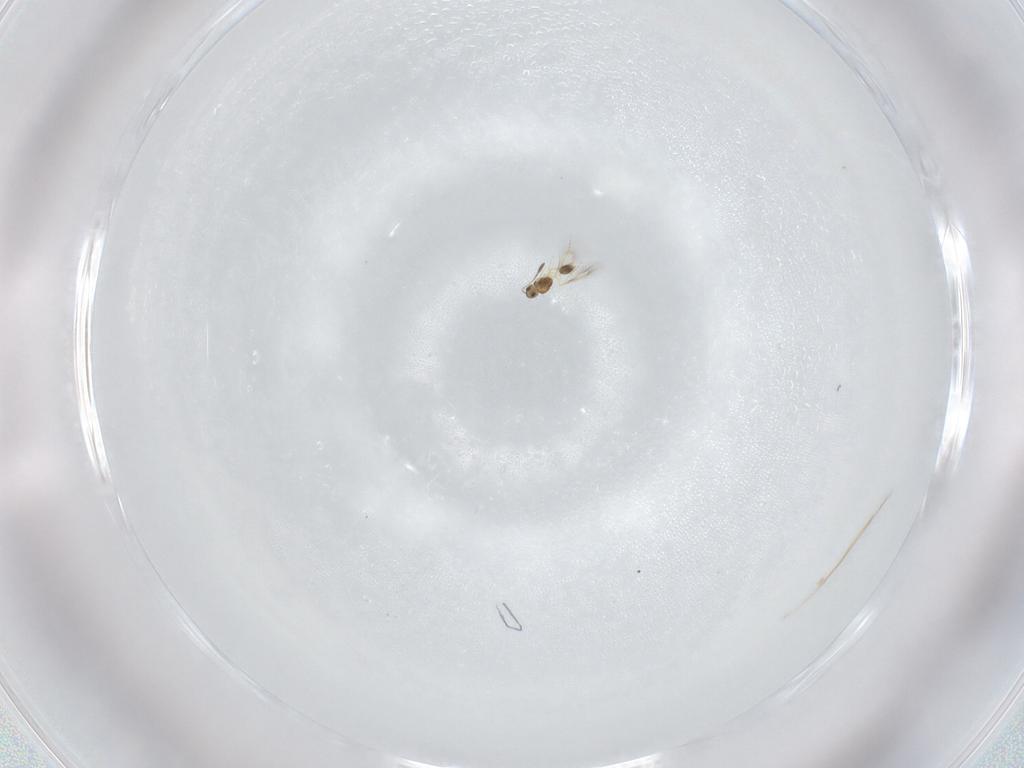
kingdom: Animalia
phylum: Arthropoda
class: Insecta
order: Hymenoptera
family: Mymarommatidae
